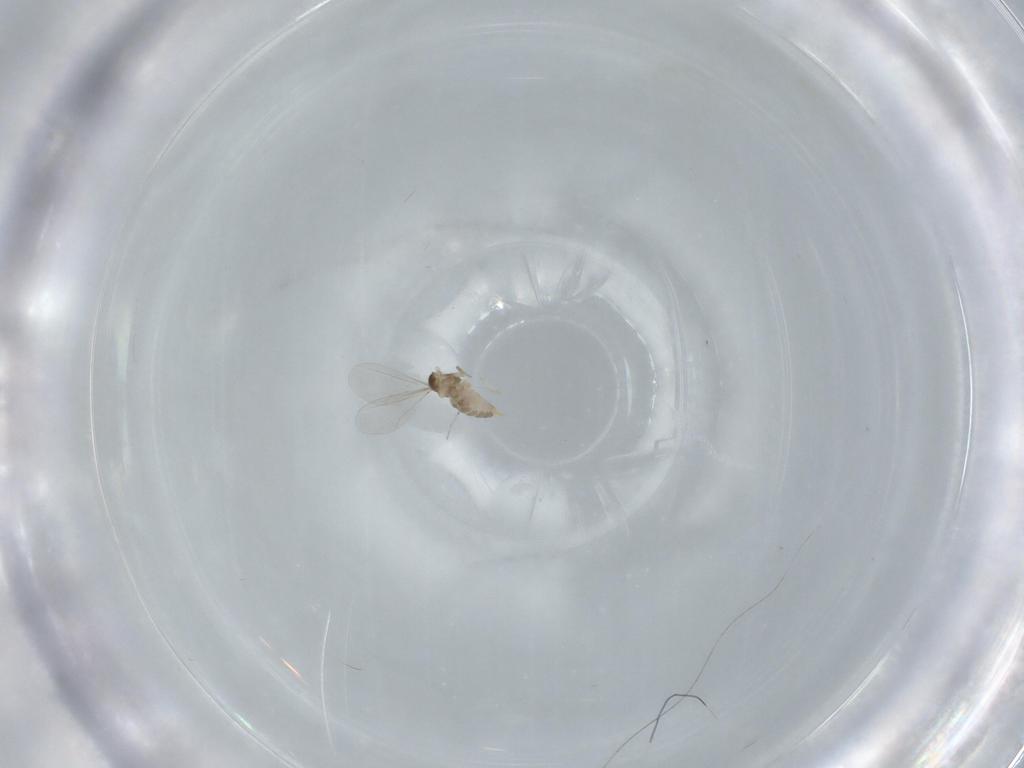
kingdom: Animalia
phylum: Arthropoda
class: Insecta
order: Diptera
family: Cecidomyiidae
